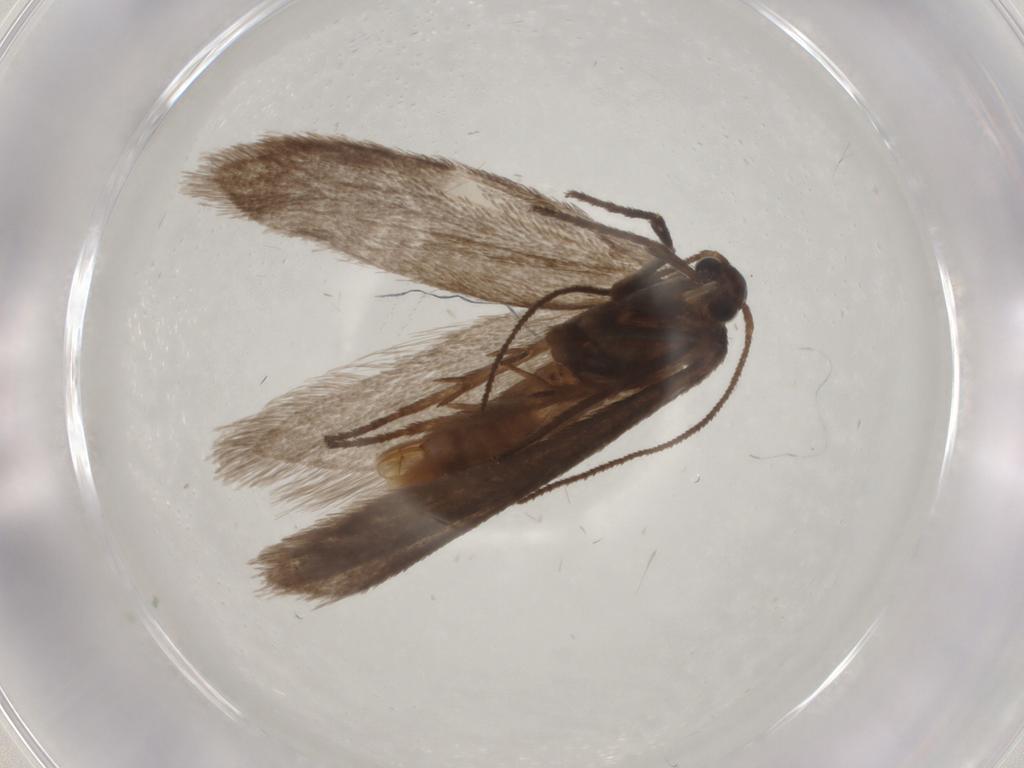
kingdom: Animalia
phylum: Arthropoda
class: Insecta
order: Lepidoptera
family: Limacodidae
